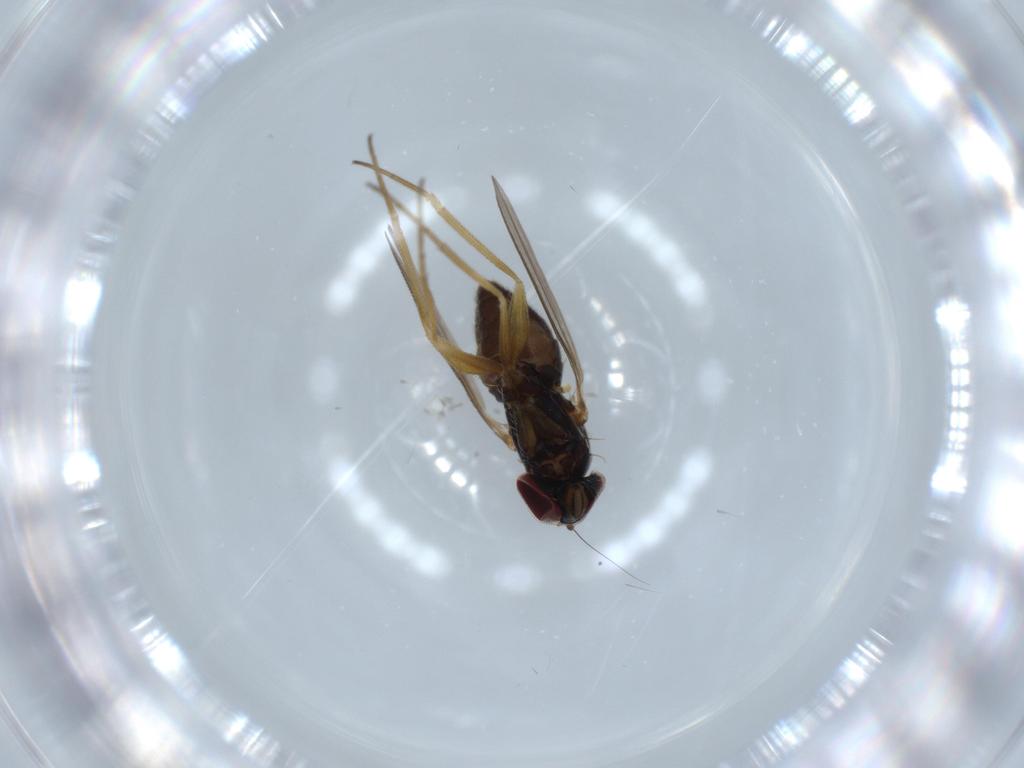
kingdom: Animalia
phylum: Arthropoda
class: Insecta
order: Diptera
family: Dolichopodidae
